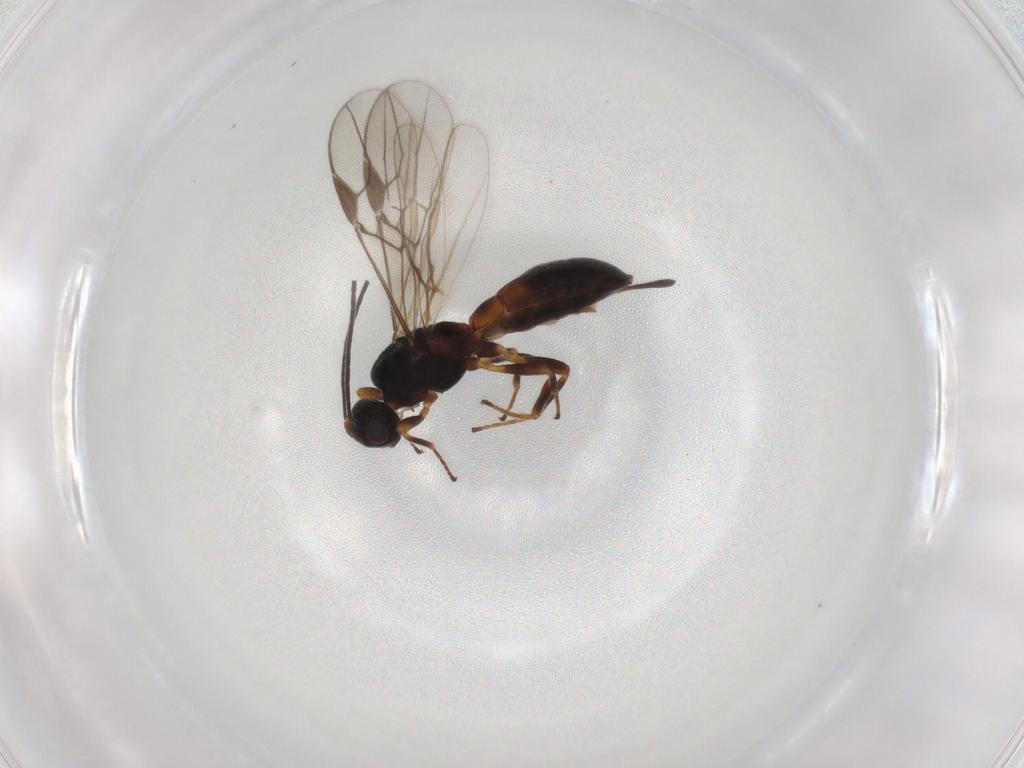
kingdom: Animalia
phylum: Arthropoda
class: Insecta
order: Hymenoptera
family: Braconidae
